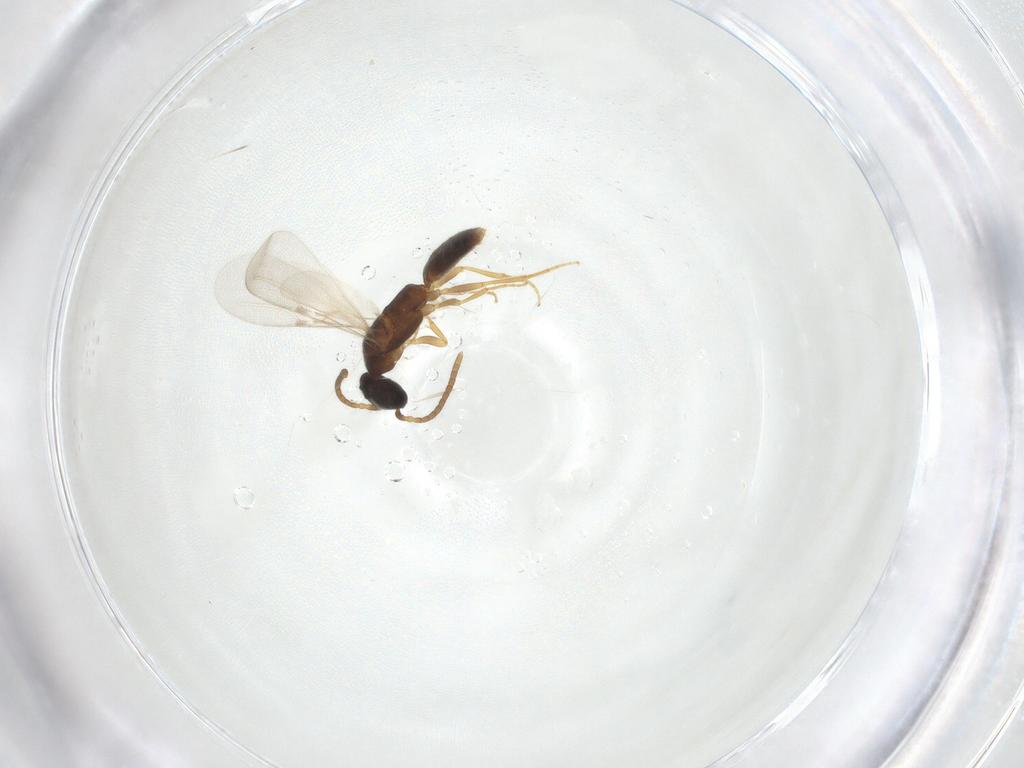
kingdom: Animalia
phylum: Arthropoda
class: Insecta
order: Hymenoptera
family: Bethylidae
